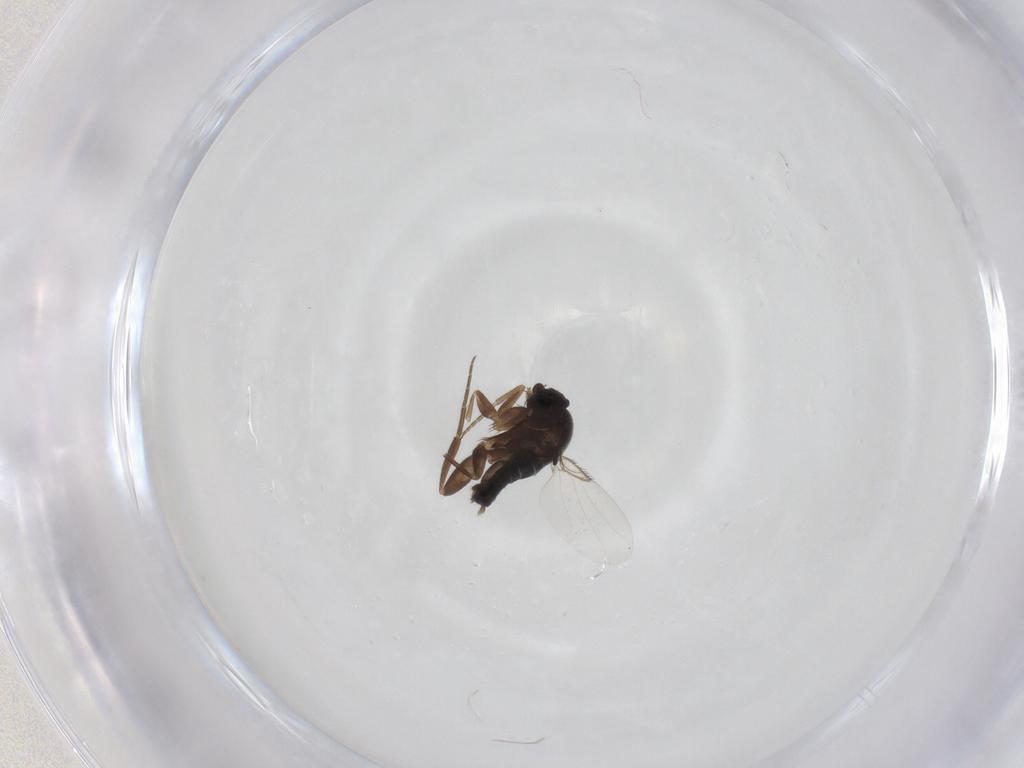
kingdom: Animalia
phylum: Arthropoda
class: Insecta
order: Diptera
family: Phoridae
